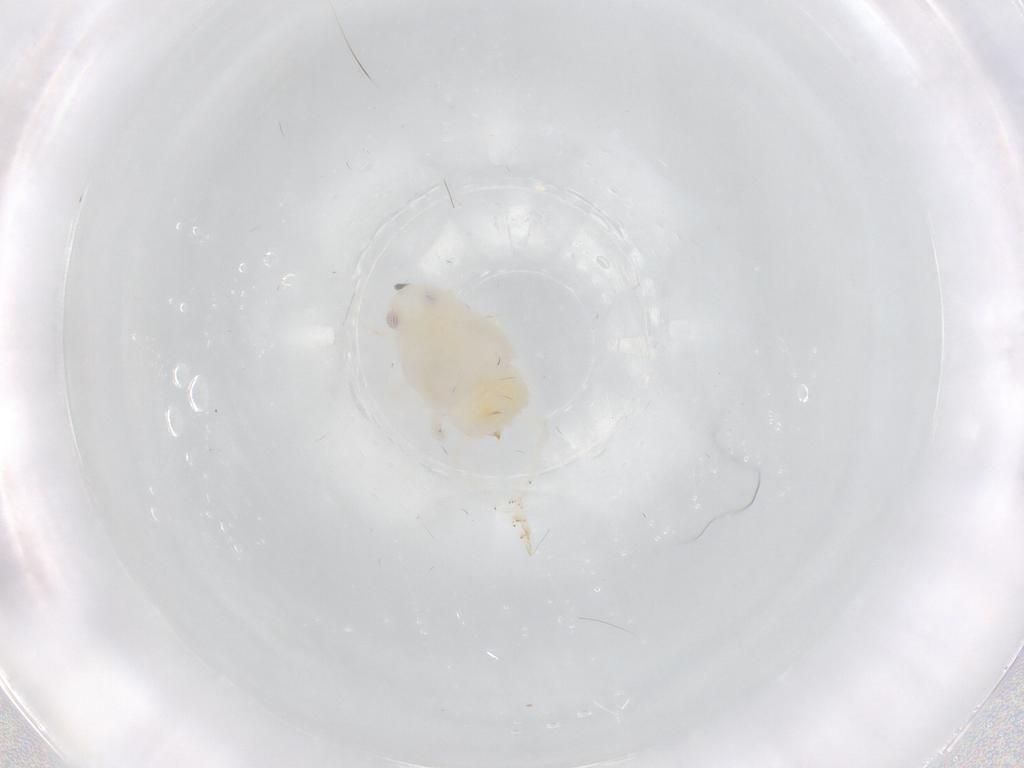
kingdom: Animalia
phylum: Arthropoda
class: Insecta
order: Hemiptera
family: Flatidae
